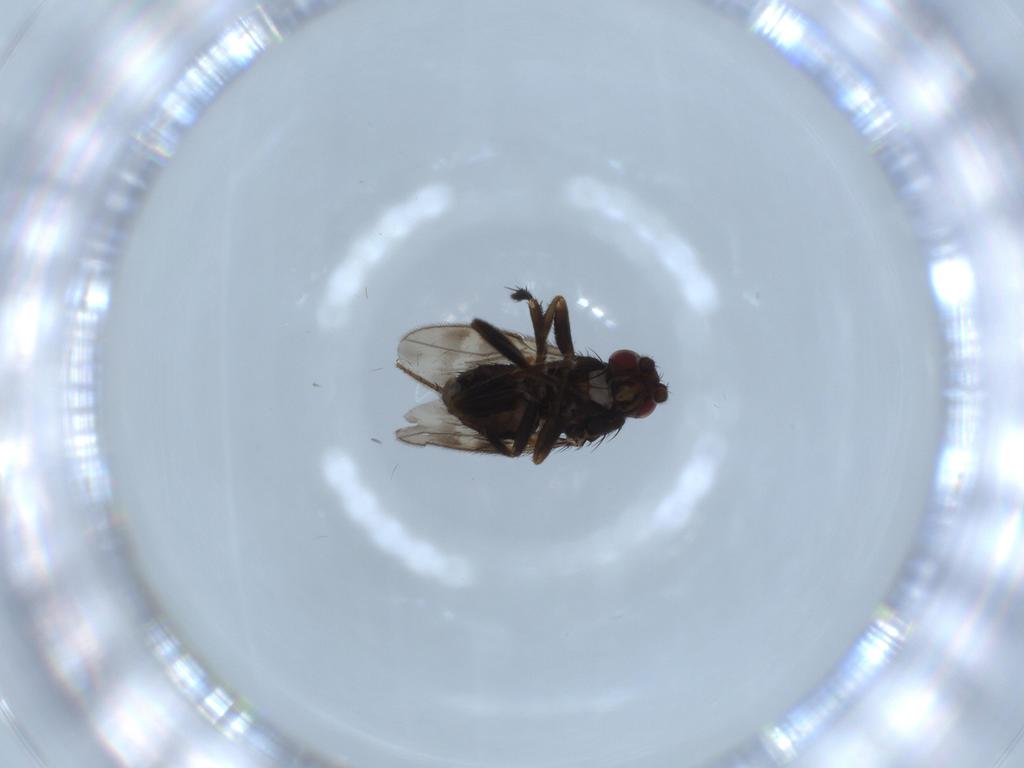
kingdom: Animalia
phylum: Arthropoda
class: Insecta
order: Diptera
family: Sphaeroceridae
